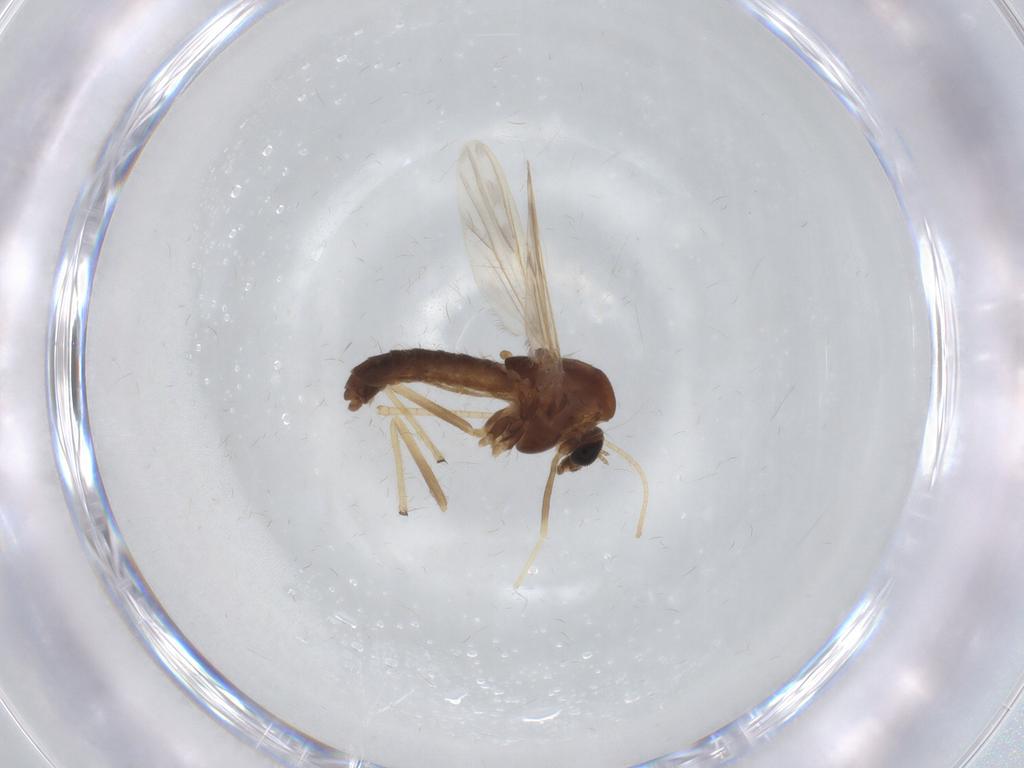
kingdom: Animalia
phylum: Arthropoda
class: Insecta
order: Diptera
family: Chironomidae
